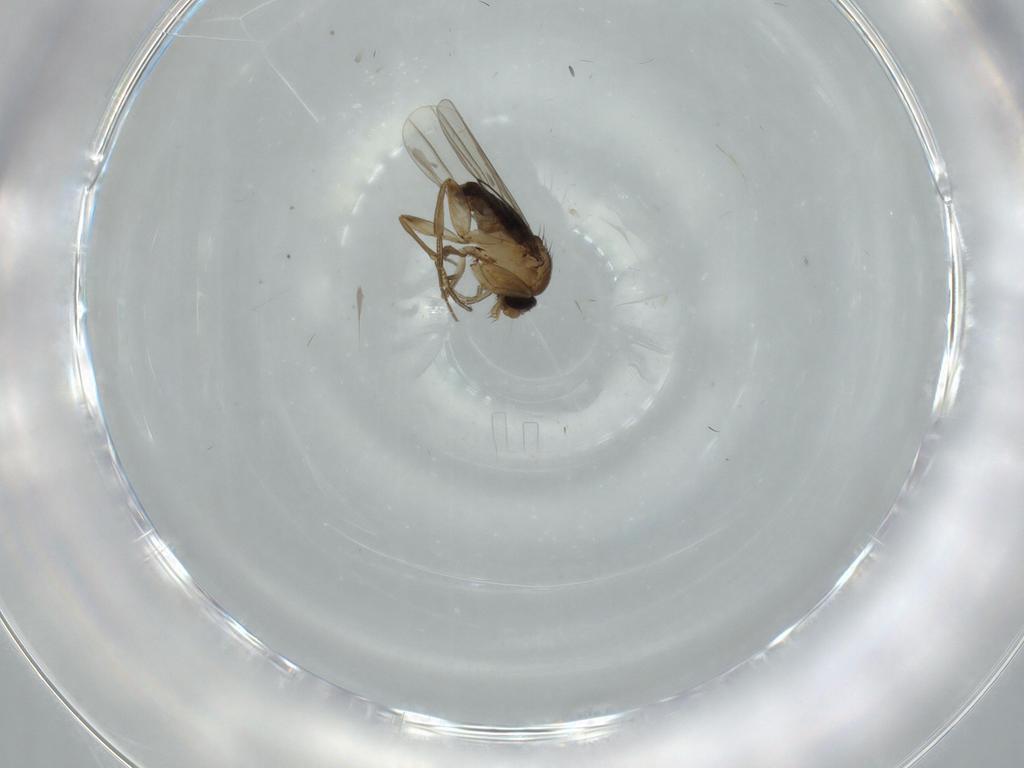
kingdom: Animalia
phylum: Arthropoda
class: Insecta
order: Diptera
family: Phoridae
